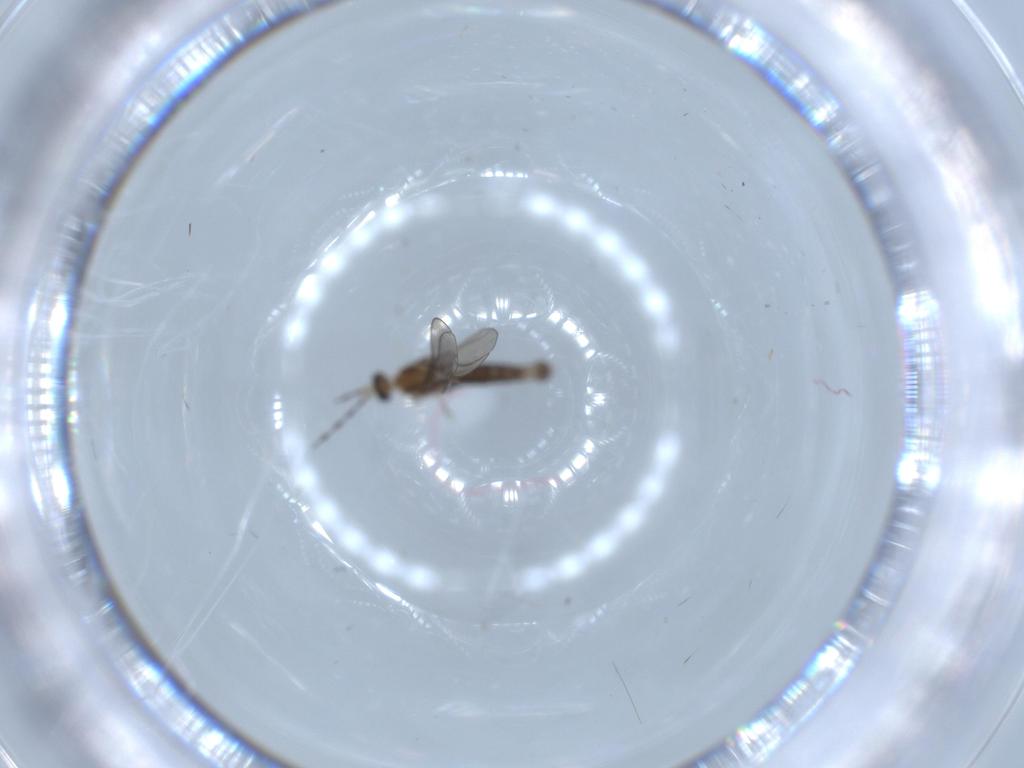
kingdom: Animalia
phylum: Arthropoda
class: Insecta
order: Diptera
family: Cecidomyiidae
